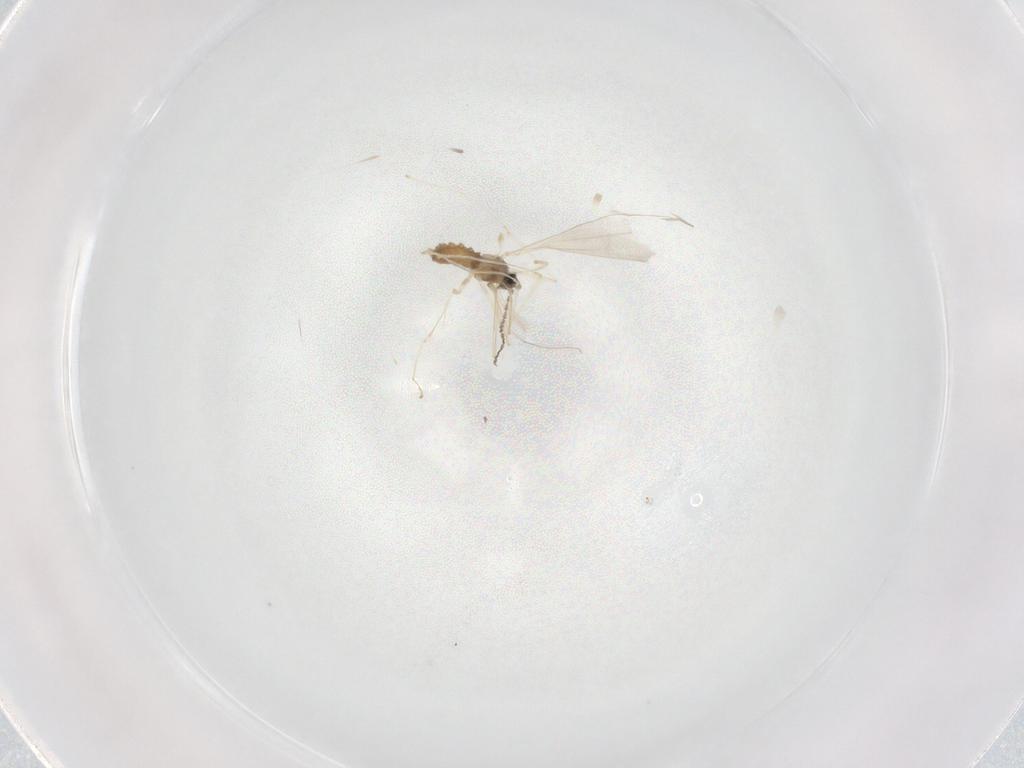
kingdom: Animalia
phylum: Arthropoda
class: Insecta
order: Diptera
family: Cecidomyiidae
